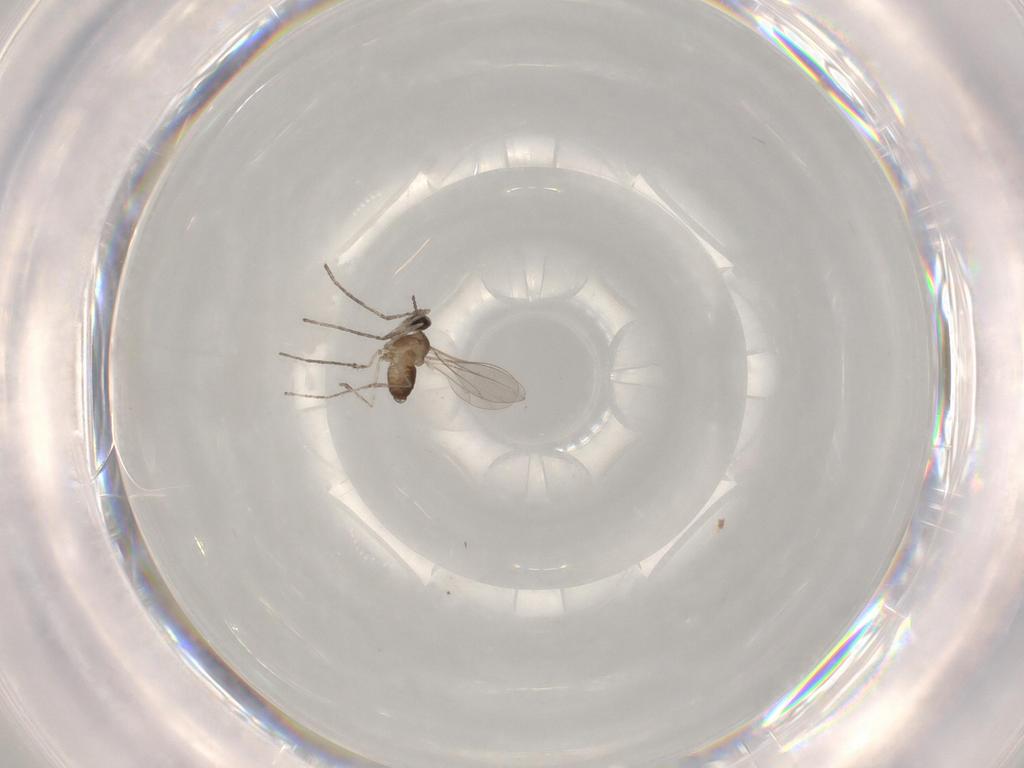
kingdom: Animalia
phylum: Arthropoda
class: Insecta
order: Diptera
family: Cecidomyiidae
